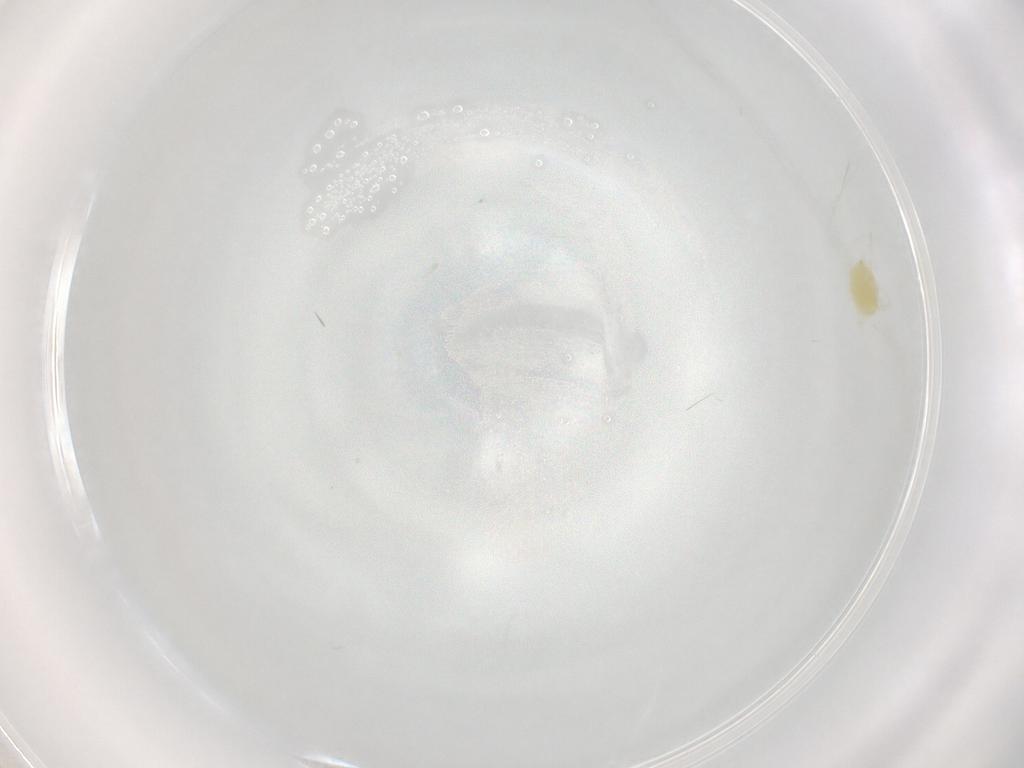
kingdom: Animalia
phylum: Arthropoda
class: Arachnida
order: Trombidiformes
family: Tetranychidae
